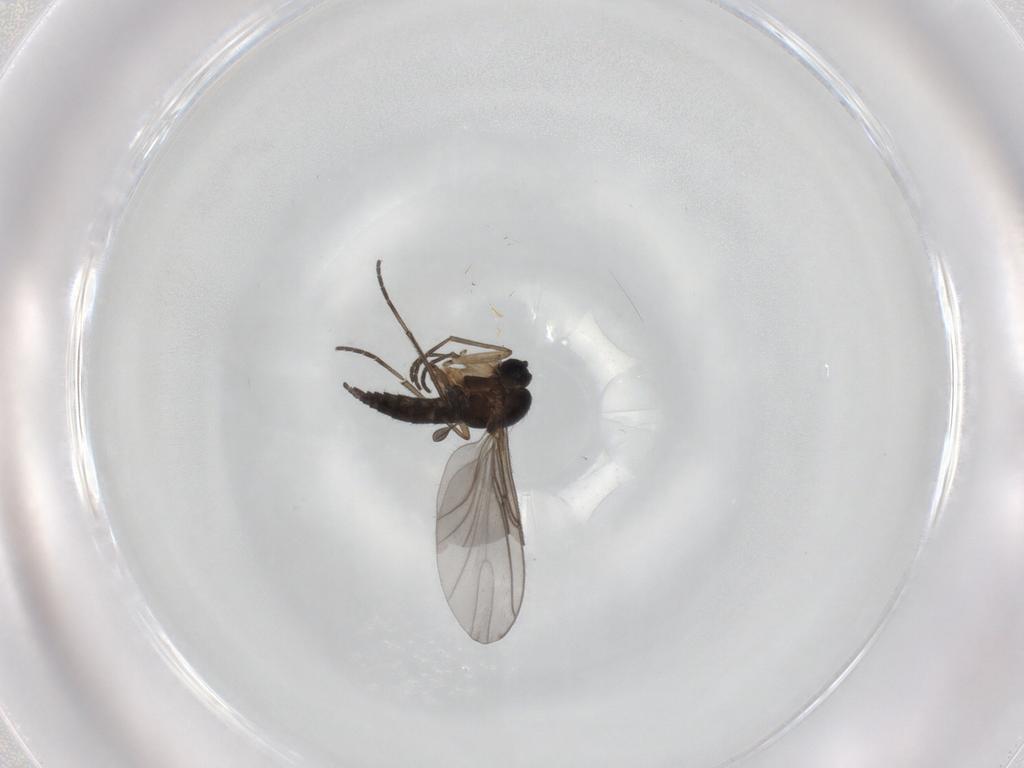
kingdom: Animalia
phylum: Arthropoda
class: Insecta
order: Diptera
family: Sciaridae
